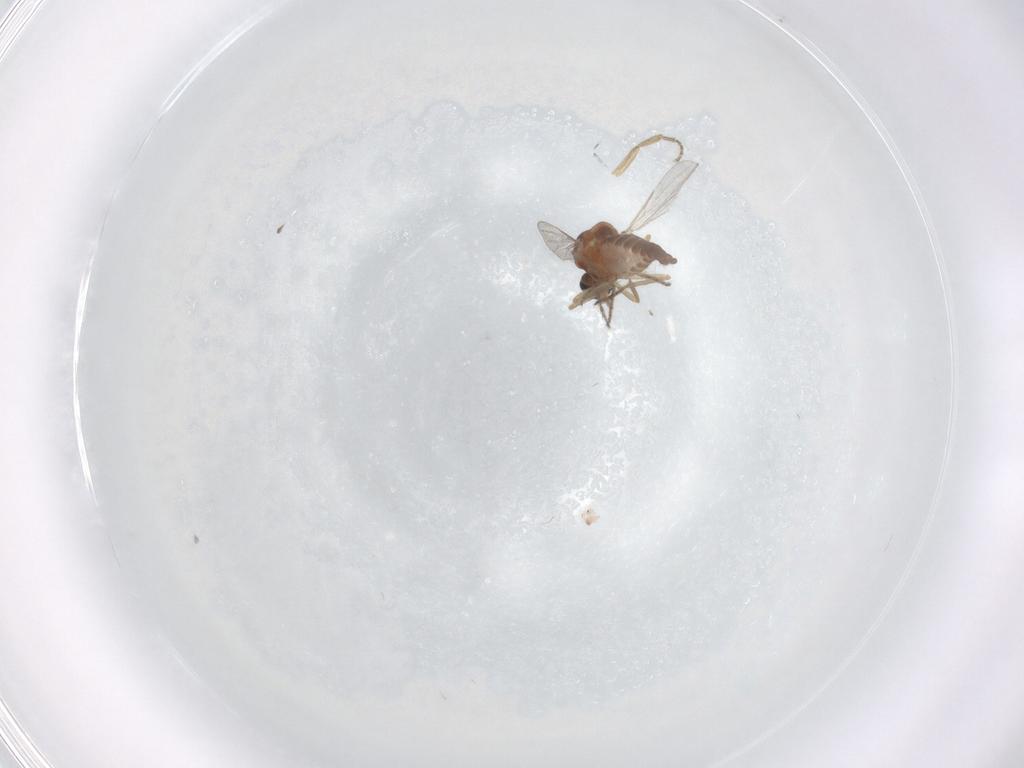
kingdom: Animalia
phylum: Arthropoda
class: Insecta
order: Diptera
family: Ceratopogonidae
